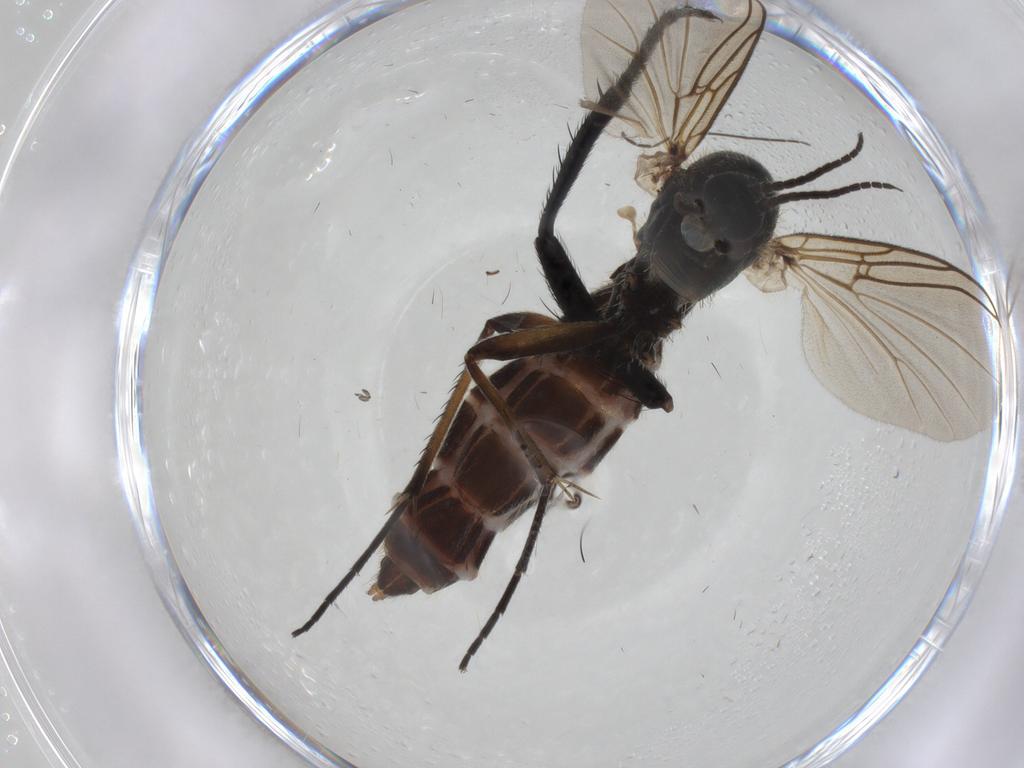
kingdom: Animalia
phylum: Arthropoda
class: Insecta
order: Diptera
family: Muscidae
